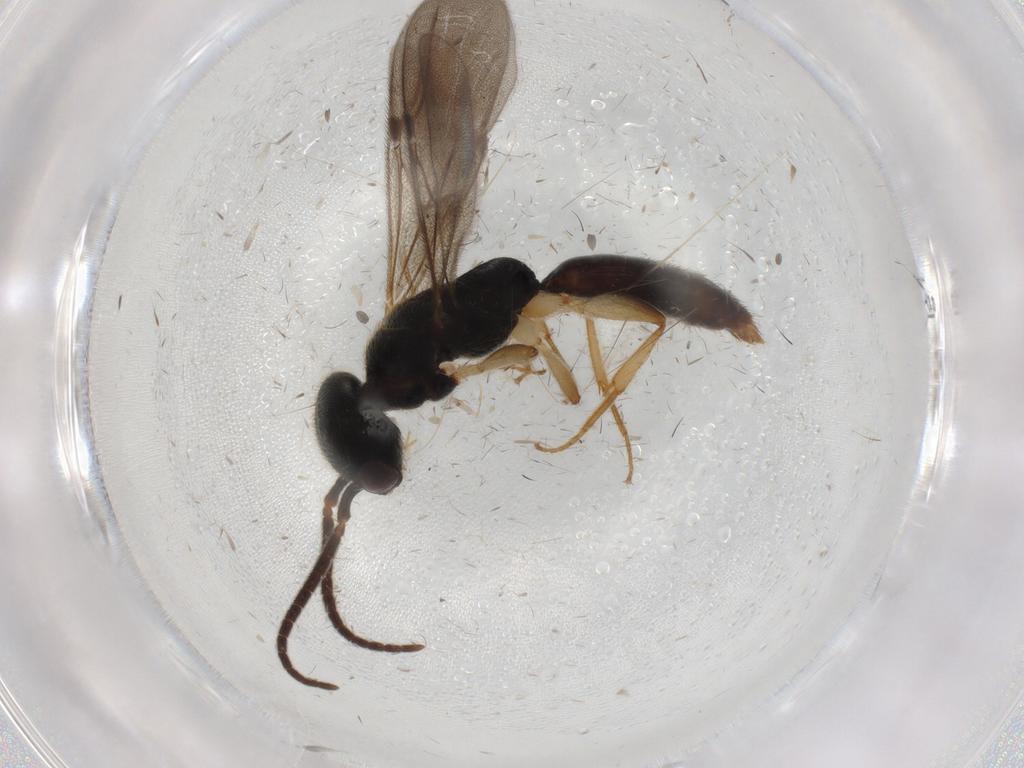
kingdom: Animalia
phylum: Arthropoda
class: Insecta
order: Hymenoptera
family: Bethylidae
